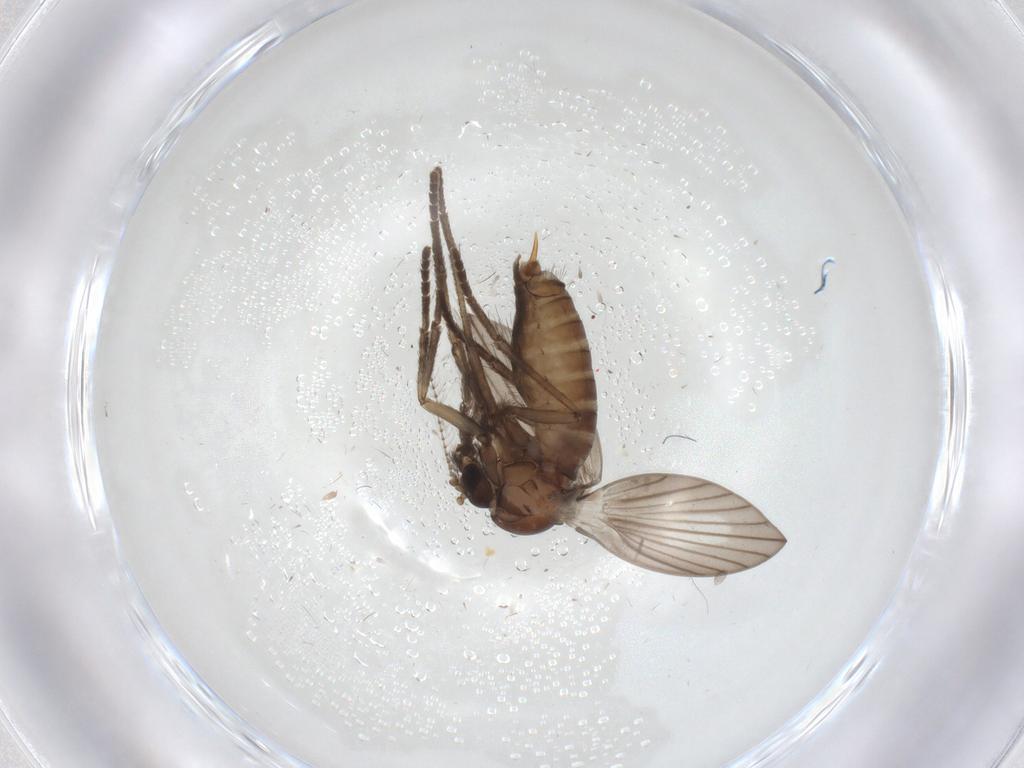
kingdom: Animalia
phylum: Arthropoda
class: Insecta
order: Diptera
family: Psychodidae
